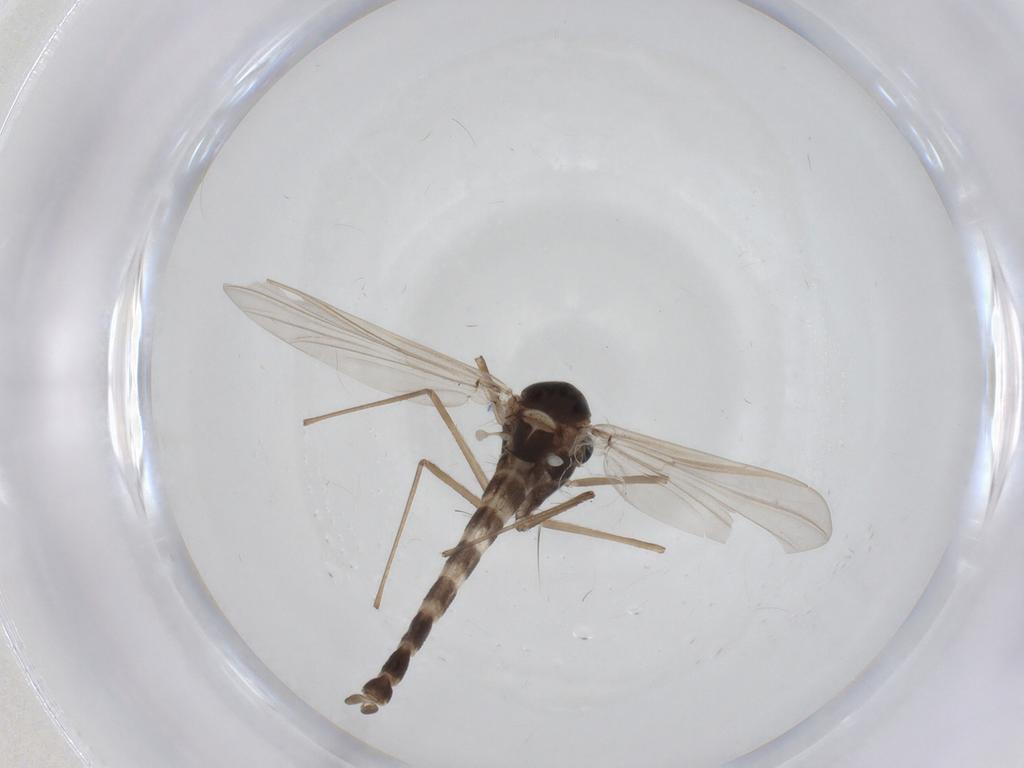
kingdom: Animalia
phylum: Arthropoda
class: Insecta
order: Diptera
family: Chironomidae
